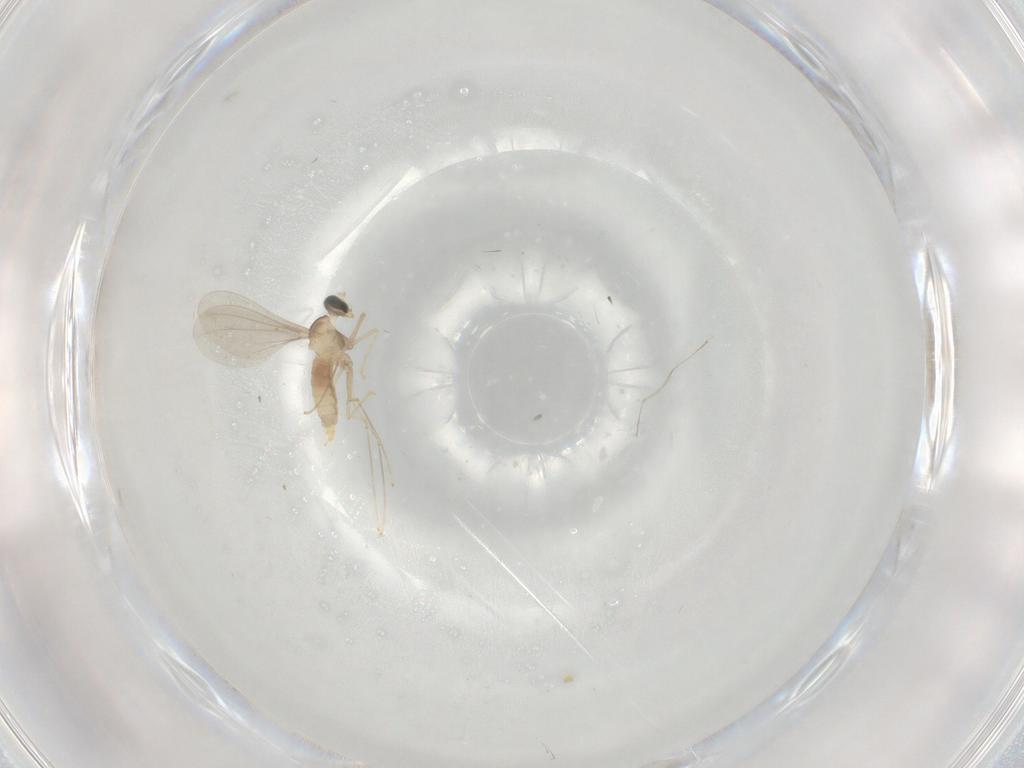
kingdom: Animalia
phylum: Arthropoda
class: Insecta
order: Diptera
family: Cecidomyiidae
